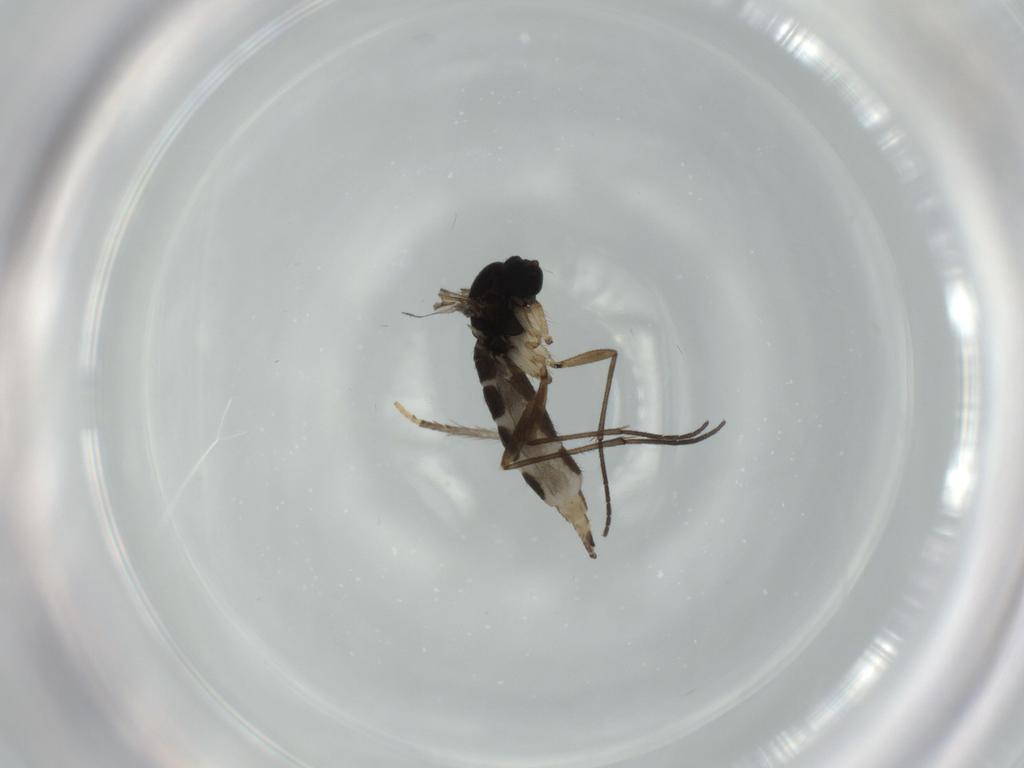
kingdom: Animalia
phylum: Arthropoda
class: Insecta
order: Diptera
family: Psychodidae
